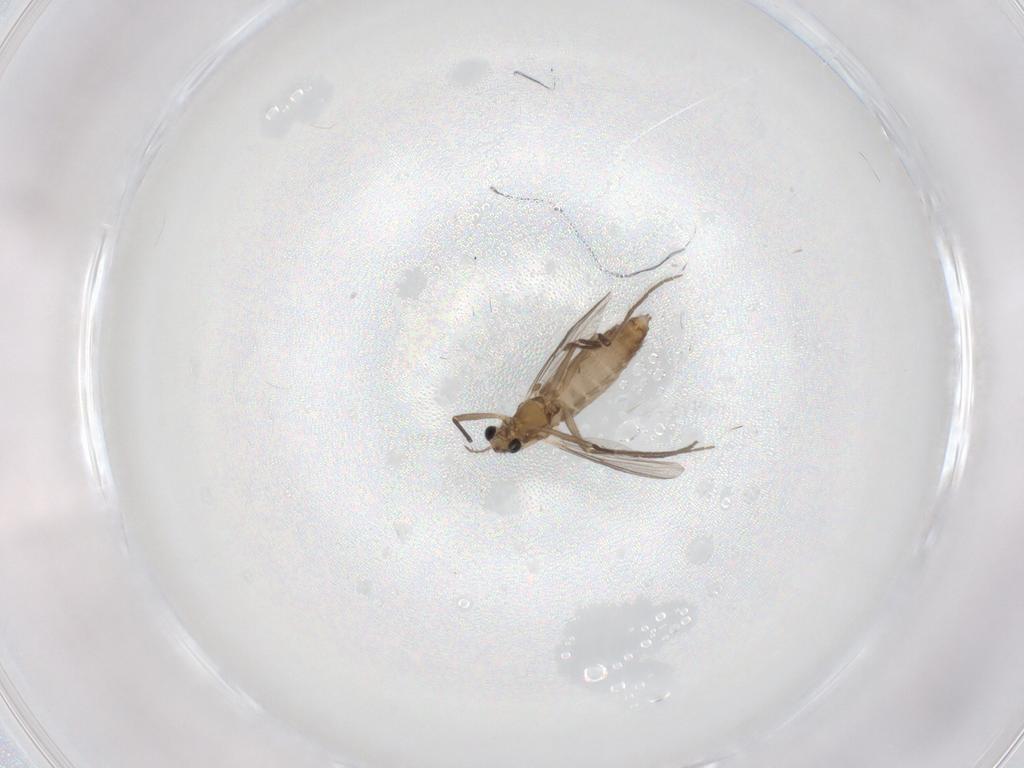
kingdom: Animalia
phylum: Arthropoda
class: Insecta
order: Diptera
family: Chironomidae
